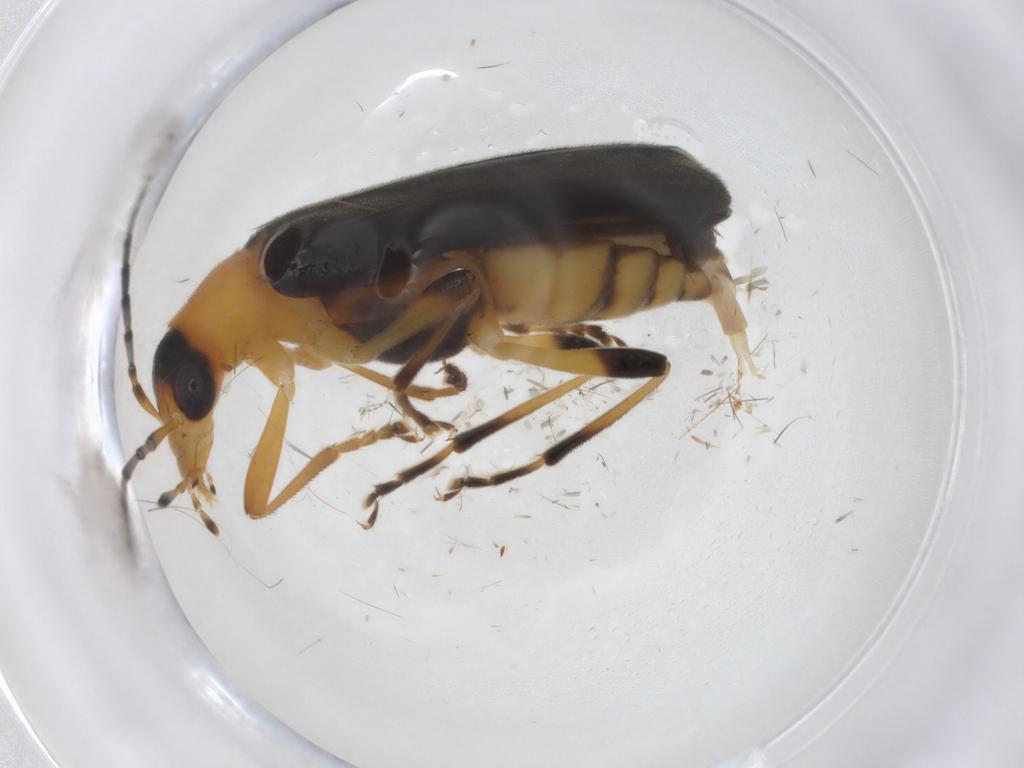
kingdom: Animalia
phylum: Arthropoda
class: Insecta
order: Coleoptera
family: Oedemeridae
